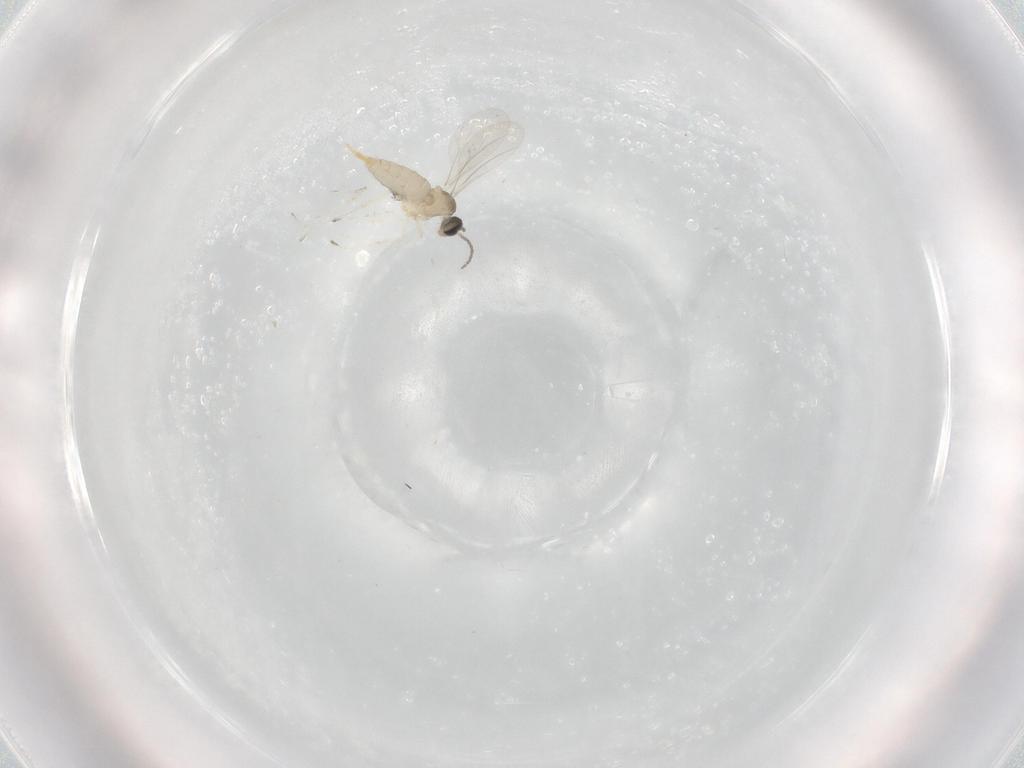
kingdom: Animalia
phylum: Arthropoda
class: Insecta
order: Diptera
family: Cecidomyiidae
